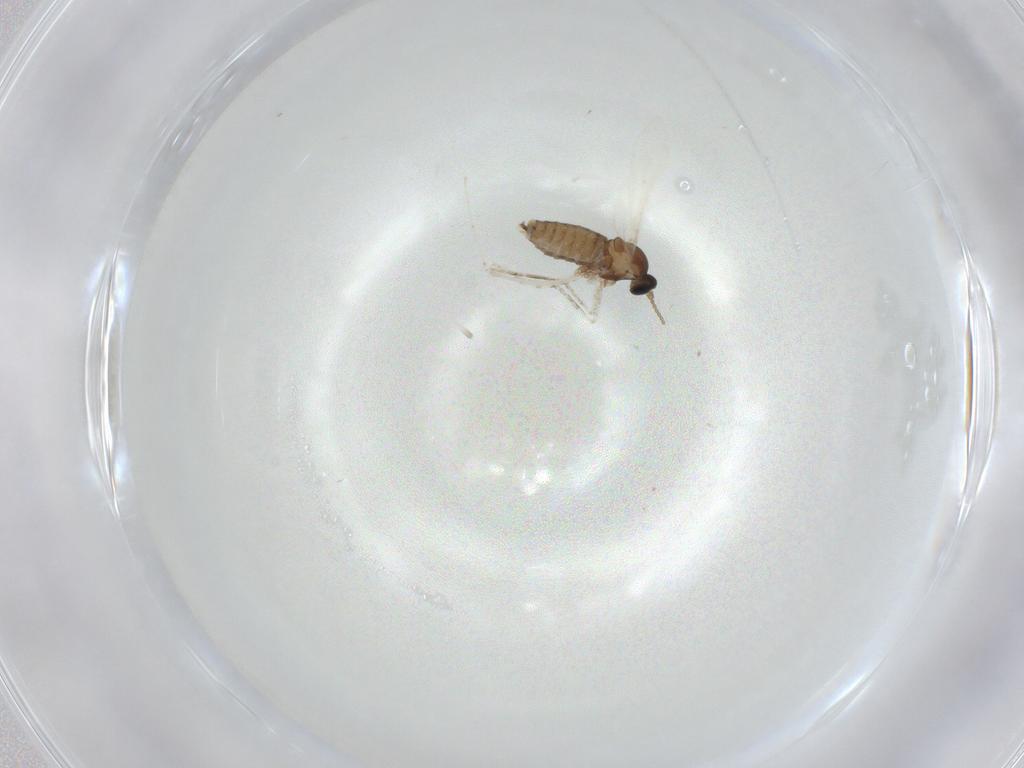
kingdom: Animalia
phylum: Arthropoda
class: Insecta
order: Diptera
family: Cecidomyiidae
